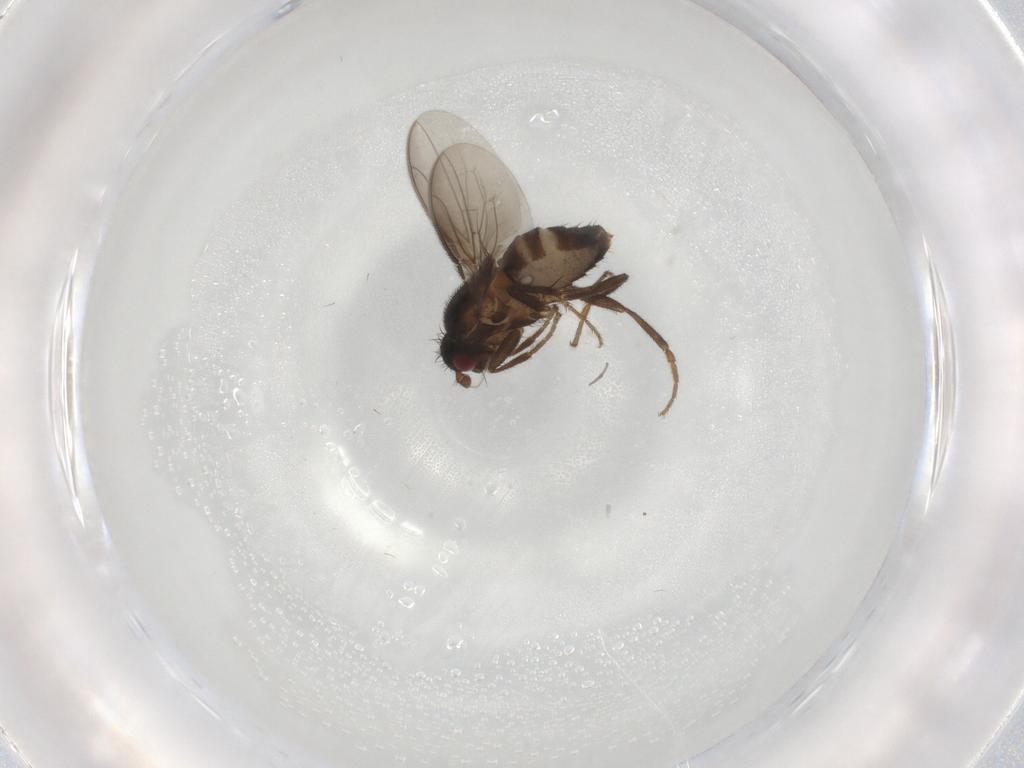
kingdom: Animalia
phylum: Arthropoda
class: Insecta
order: Diptera
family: Sphaeroceridae
